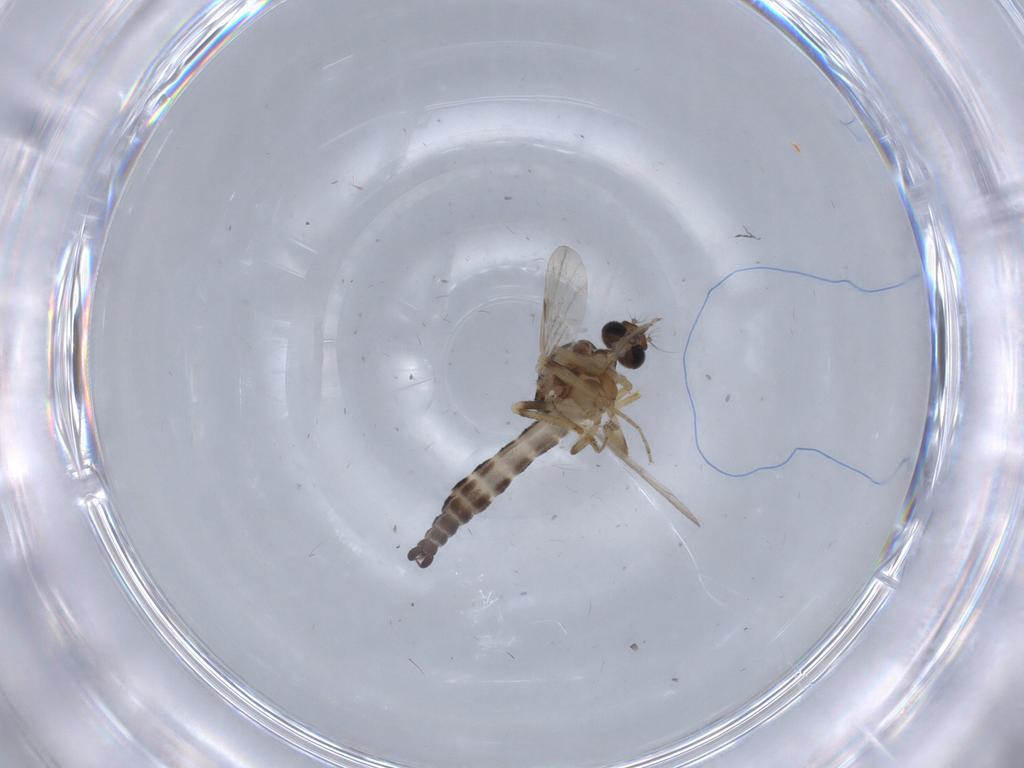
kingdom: Animalia
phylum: Arthropoda
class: Insecta
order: Diptera
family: Ceratopogonidae
